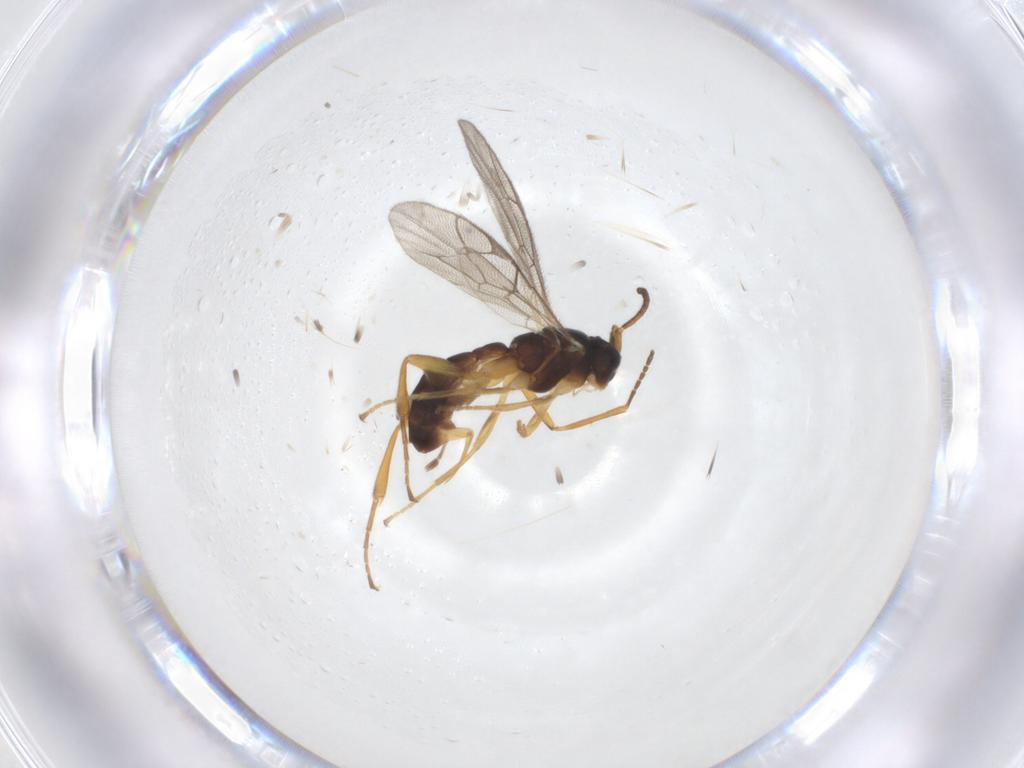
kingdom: Animalia
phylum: Arthropoda
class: Insecta
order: Hymenoptera
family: Ichneumonidae
